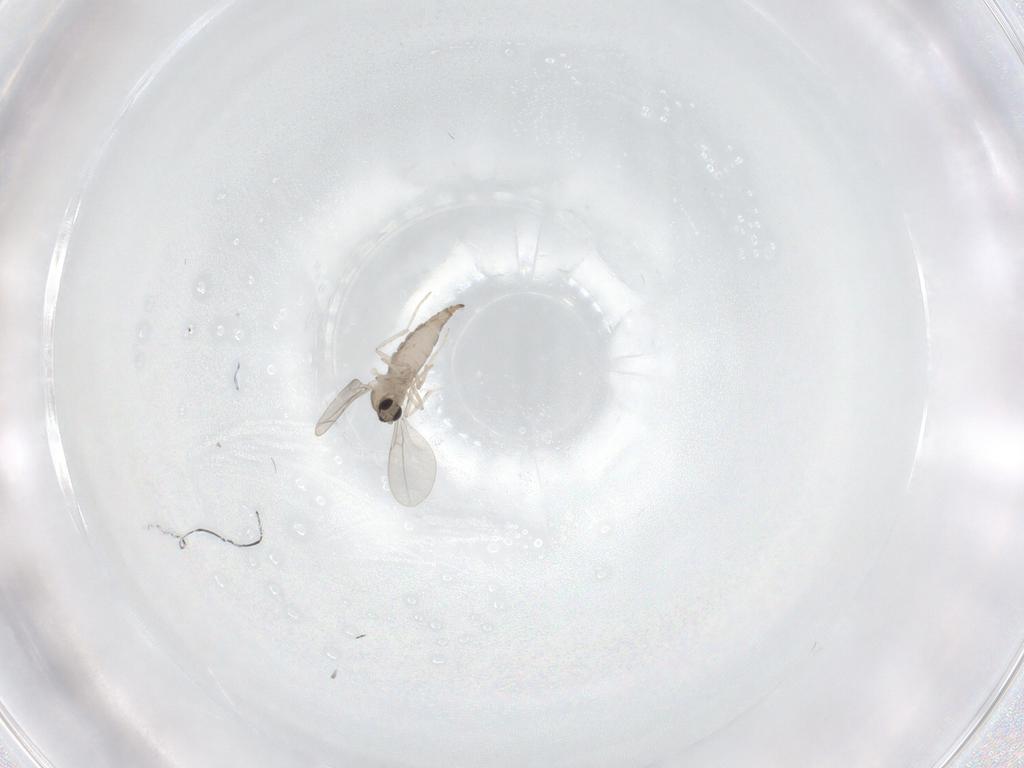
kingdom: Animalia
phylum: Arthropoda
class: Insecta
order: Diptera
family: Cecidomyiidae
